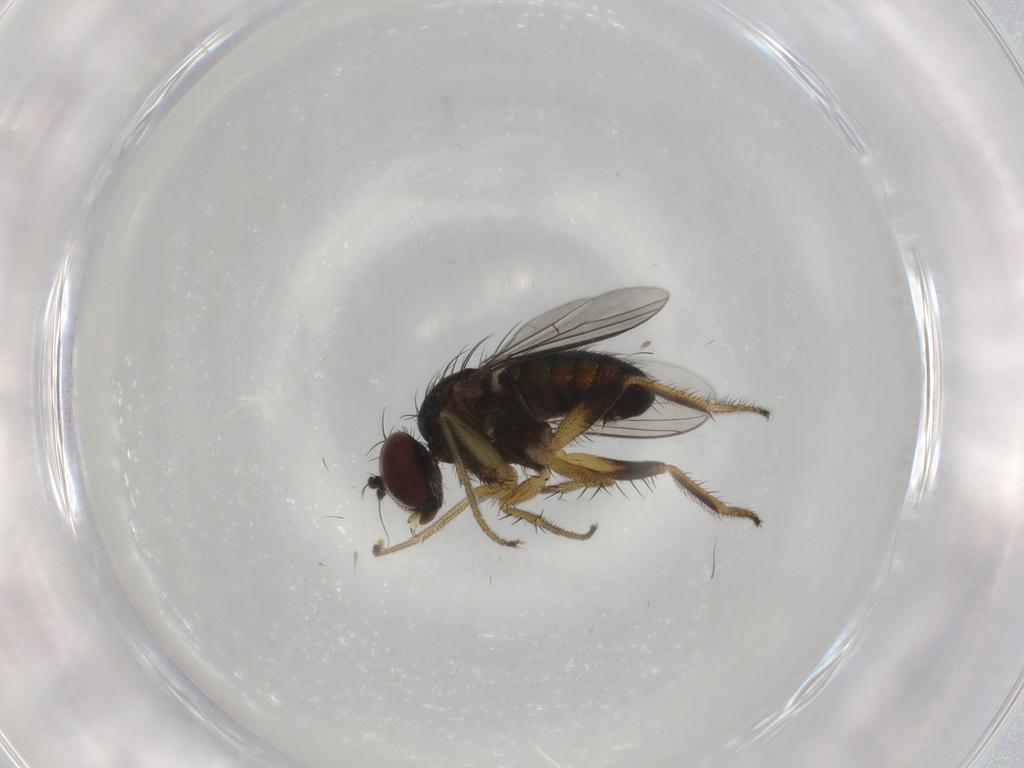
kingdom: Animalia
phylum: Arthropoda
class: Insecta
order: Diptera
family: Dolichopodidae
